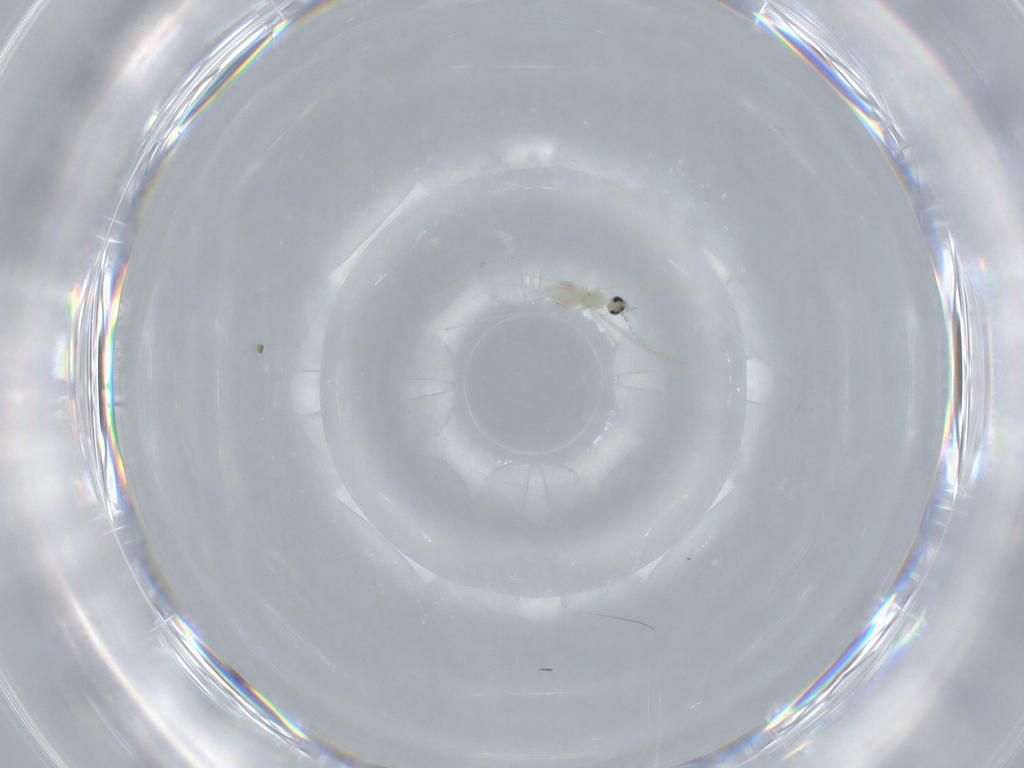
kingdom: Animalia
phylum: Arthropoda
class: Insecta
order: Diptera
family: Cecidomyiidae
